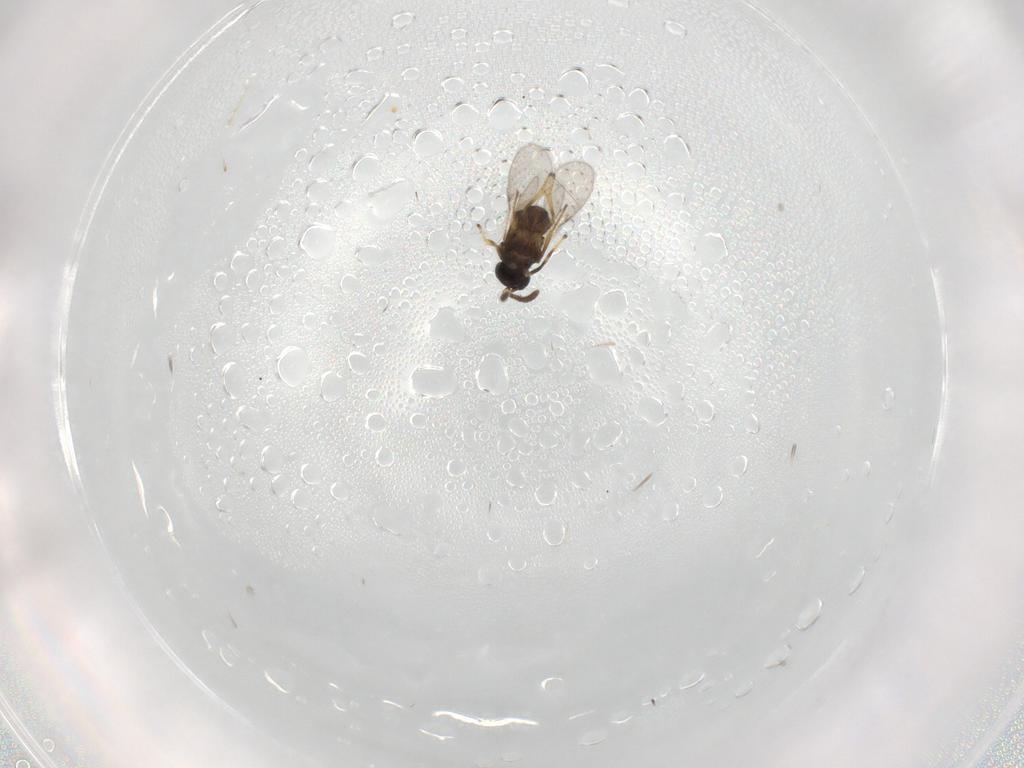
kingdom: Animalia
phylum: Arthropoda
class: Insecta
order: Hymenoptera
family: Encyrtidae
